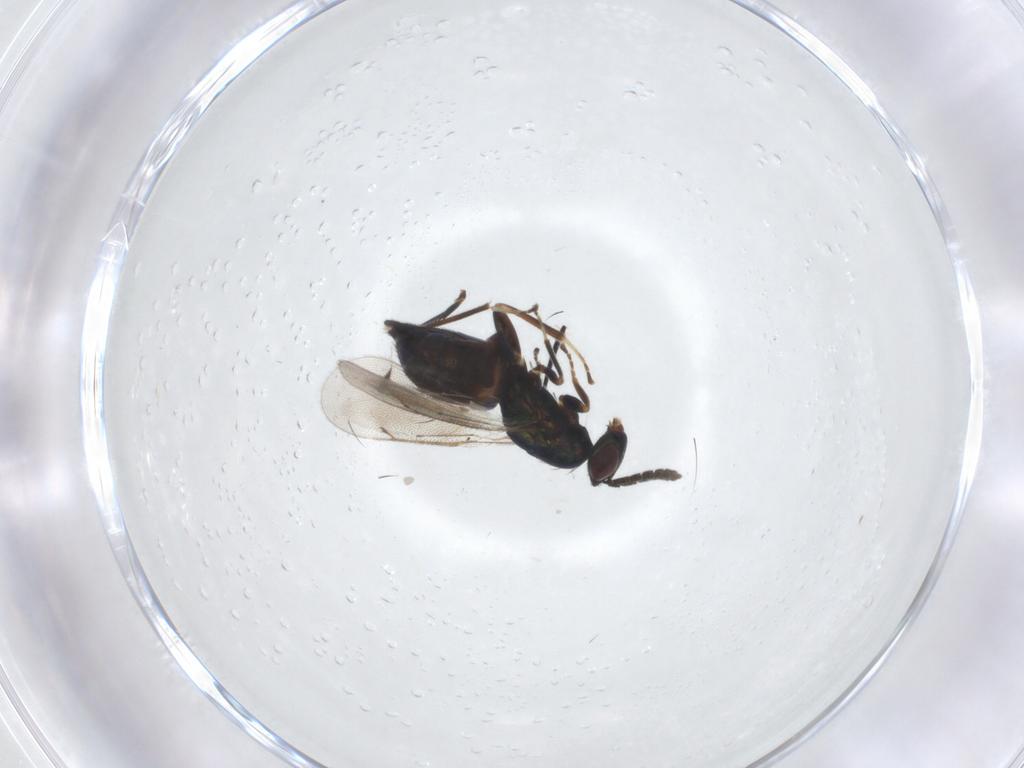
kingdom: Animalia
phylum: Arthropoda
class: Insecta
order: Hymenoptera
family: Eulophidae
